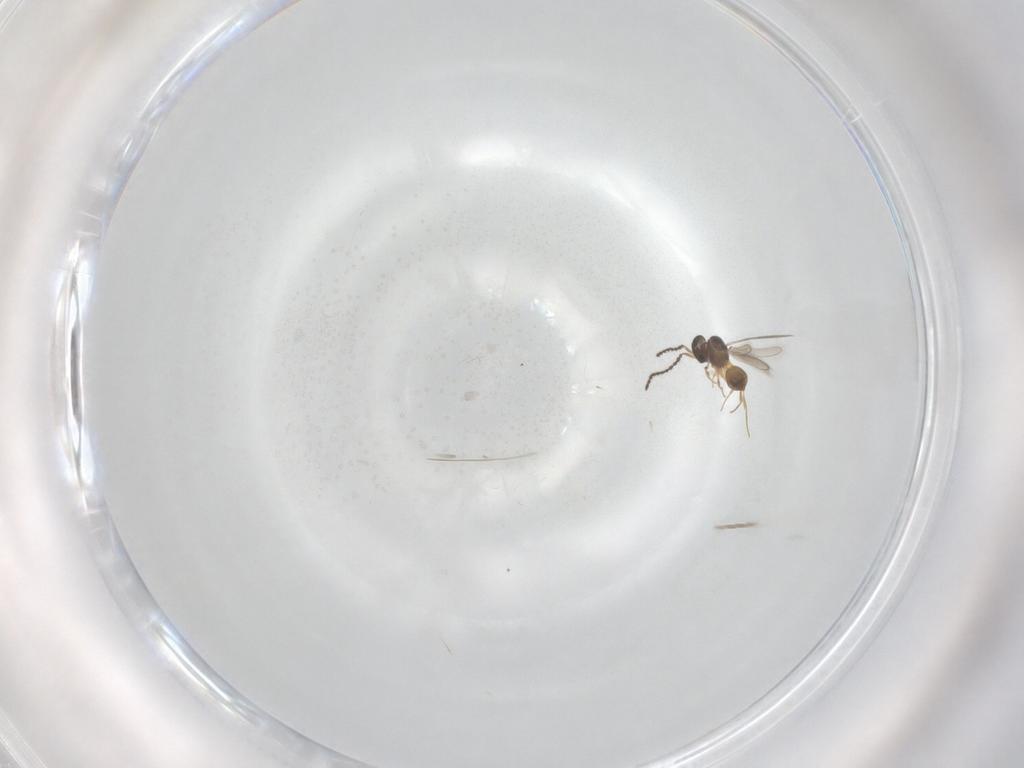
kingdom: Animalia
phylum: Arthropoda
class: Insecta
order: Hymenoptera
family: Scelionidae
